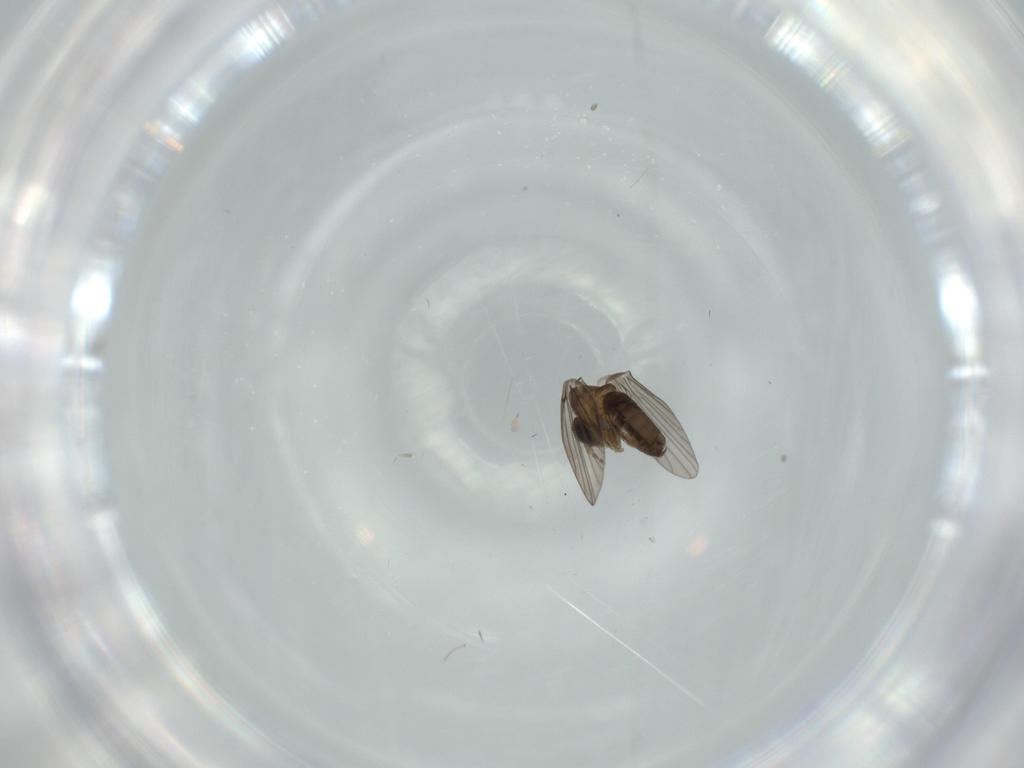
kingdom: Animalia
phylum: Arthropoda
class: Insecta
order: Diptera
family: Psychodidae
